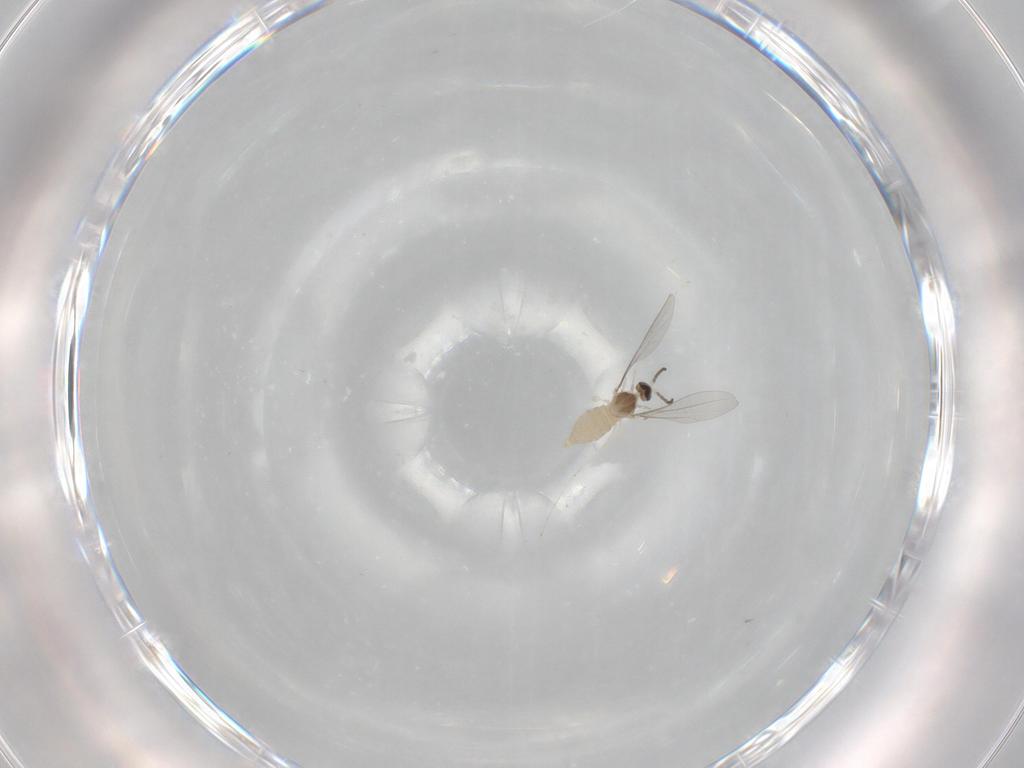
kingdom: Animalia
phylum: Arthropoda
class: Insecta
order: Diptera
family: Cecidomyiidae
